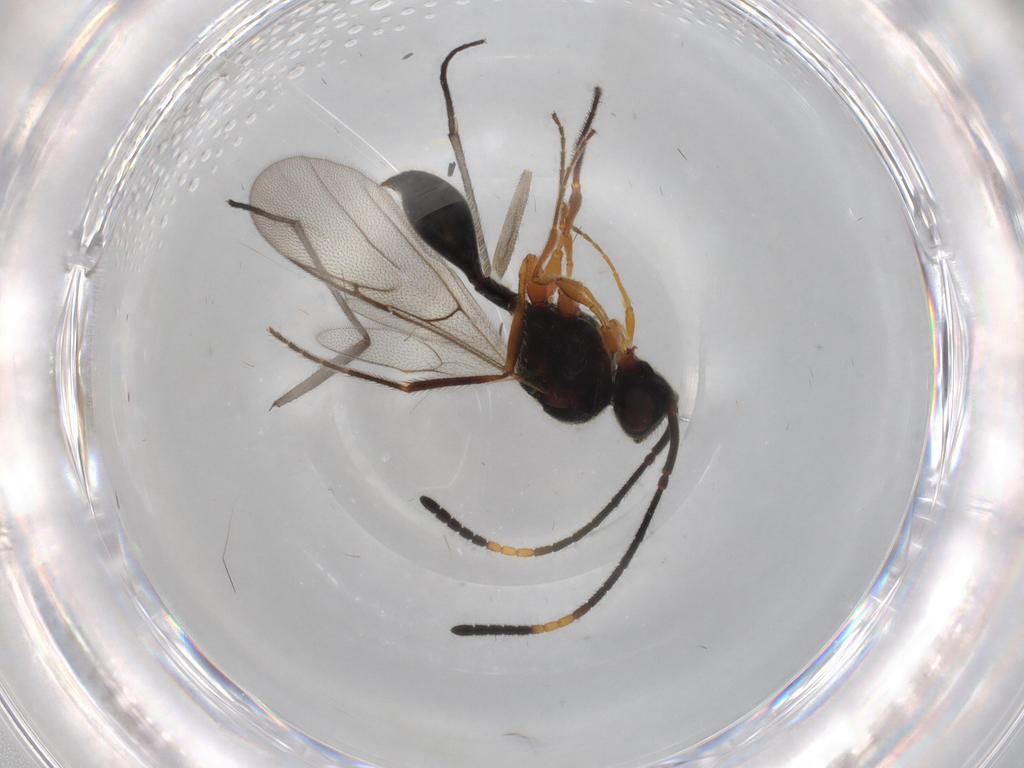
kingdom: Animalia
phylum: Arthropoda
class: Insecta
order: Hymenoptera
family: Diapriidae
